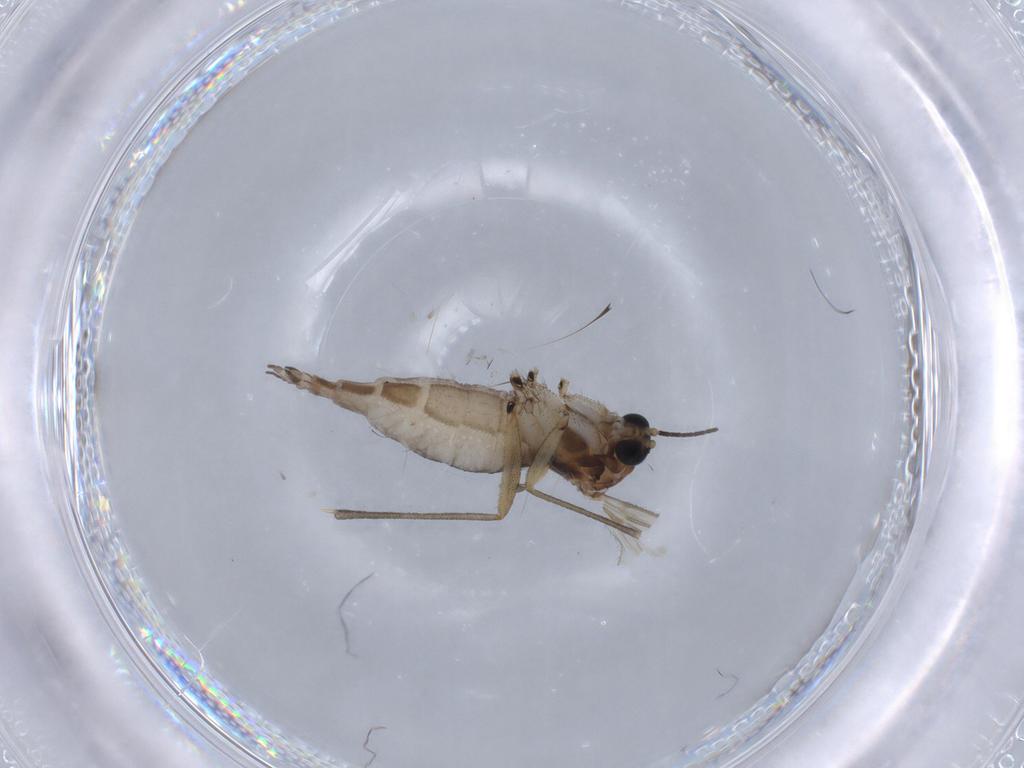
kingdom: Animalia
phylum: Arthropoda
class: Insecta
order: Diptera
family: Sciaridae
